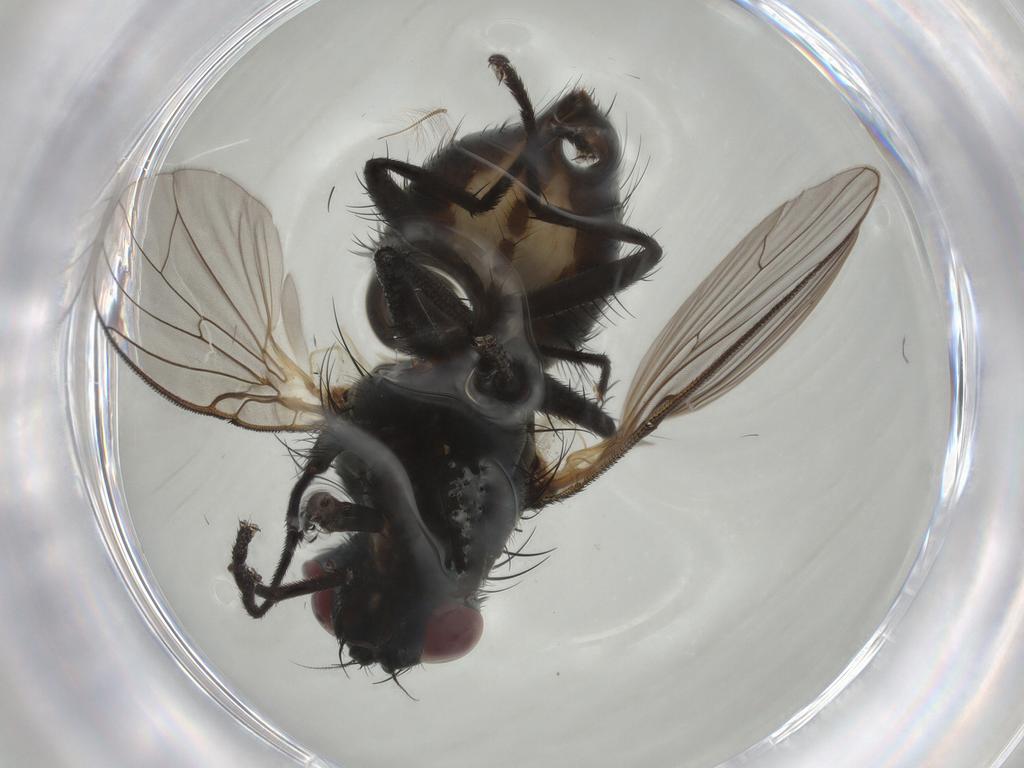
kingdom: Animalia
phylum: Arthropoda
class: Insecta
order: Diptera
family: Muscidae
